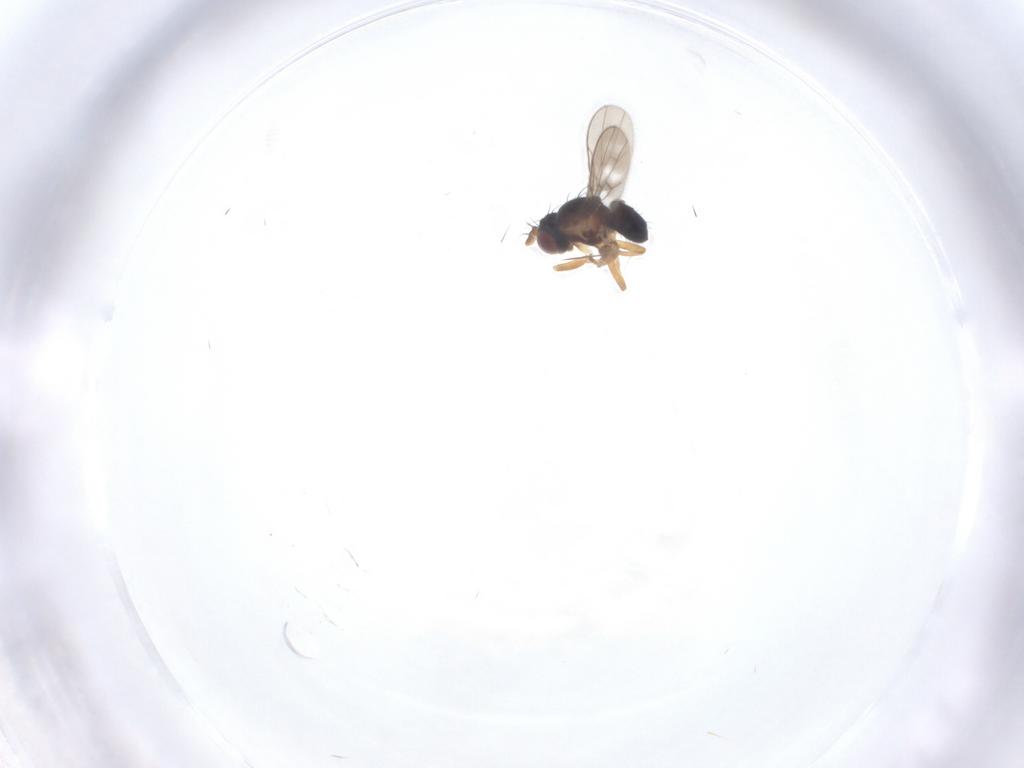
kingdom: Animalia
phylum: Arthropoda
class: Insecta
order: Diptera
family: Ephydridae
